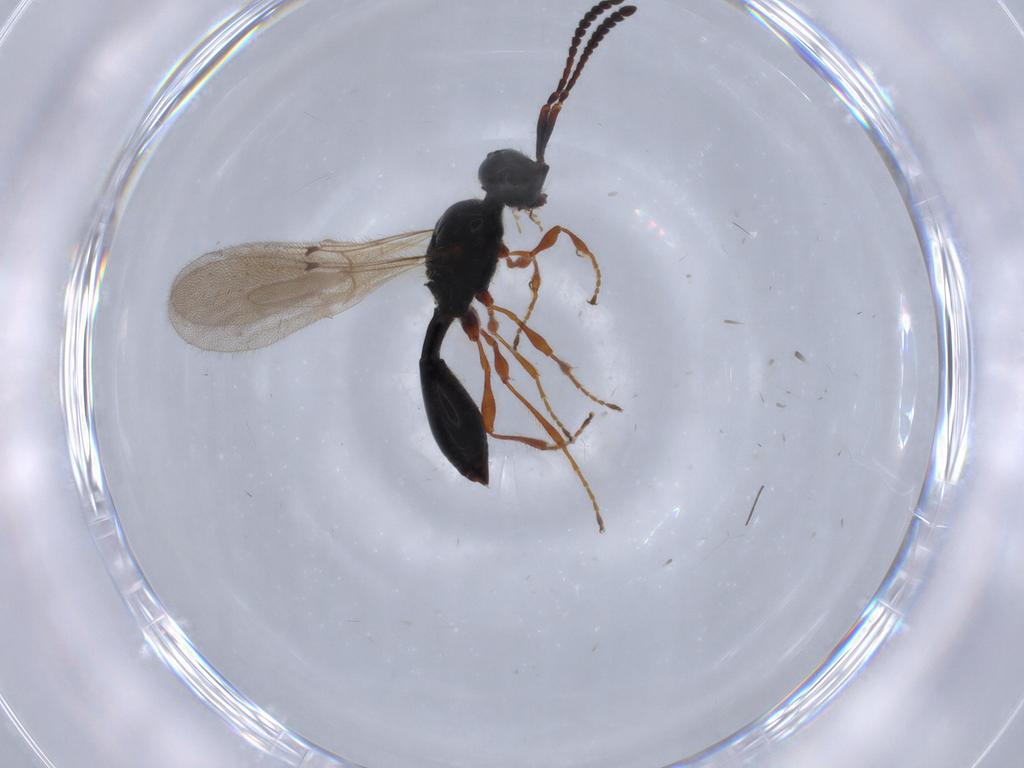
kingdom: Animalia
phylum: Arthropoda
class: Insecta
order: Hymenoptera
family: Diapriidae
